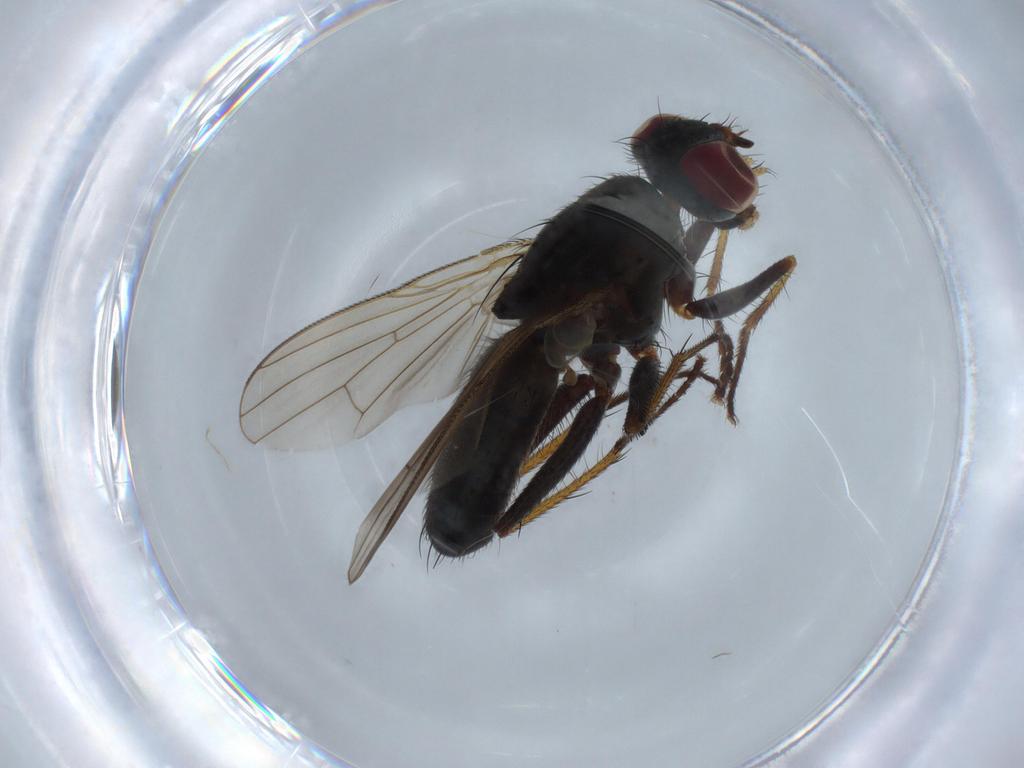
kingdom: Animalia
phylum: Arthropoda
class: Insecta
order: Diptera
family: Muscidae
